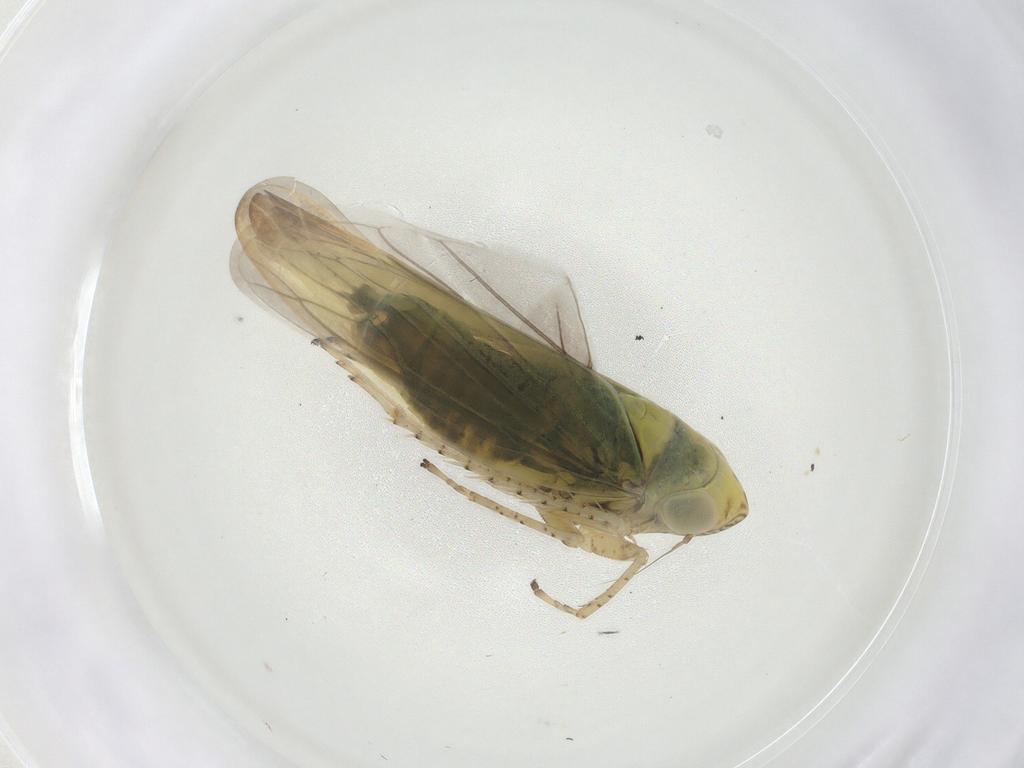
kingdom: Animalia
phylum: Arthropoda
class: Insecta
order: Hemiptera
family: Cicadellidae
